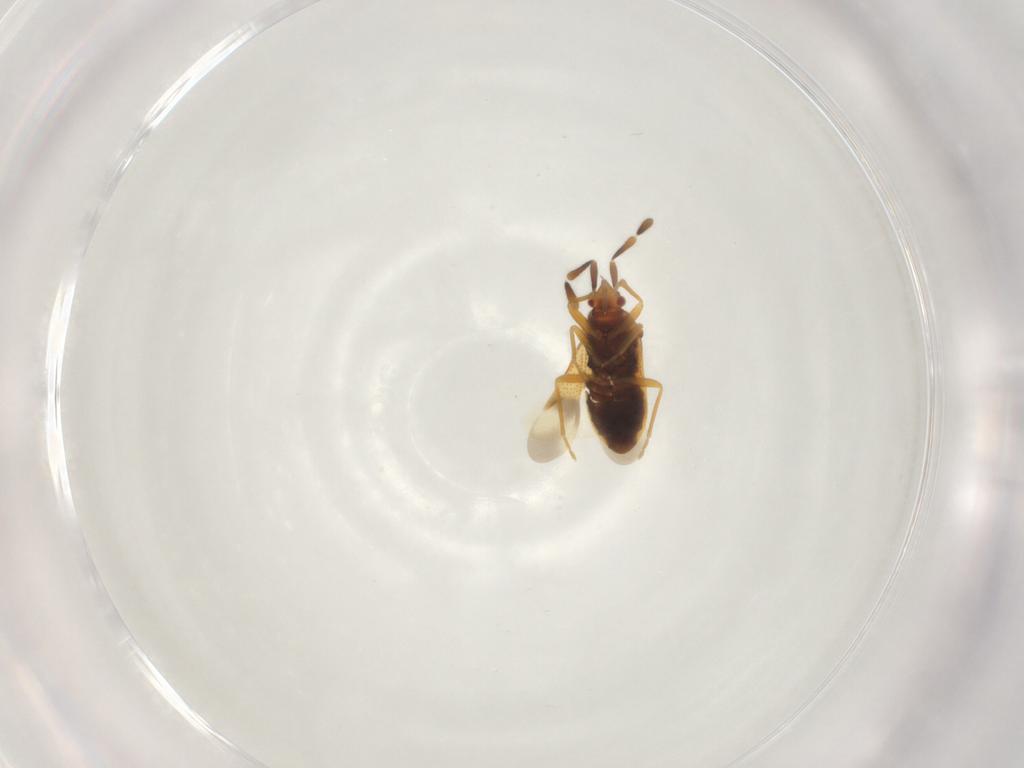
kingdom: Animalia
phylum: Arthropoda
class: Insecta
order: Hemiptera
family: Rhyparochromidae
